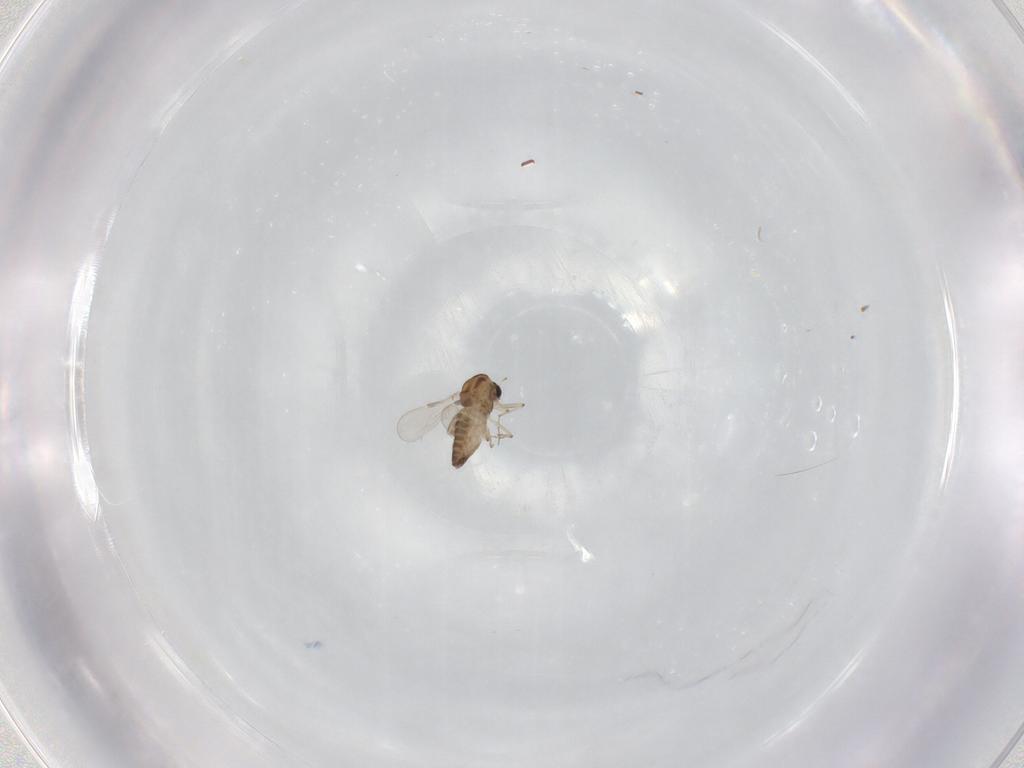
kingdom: Animalia
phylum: Arthropoda
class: Insecta
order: Diptera
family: Chironomidae
